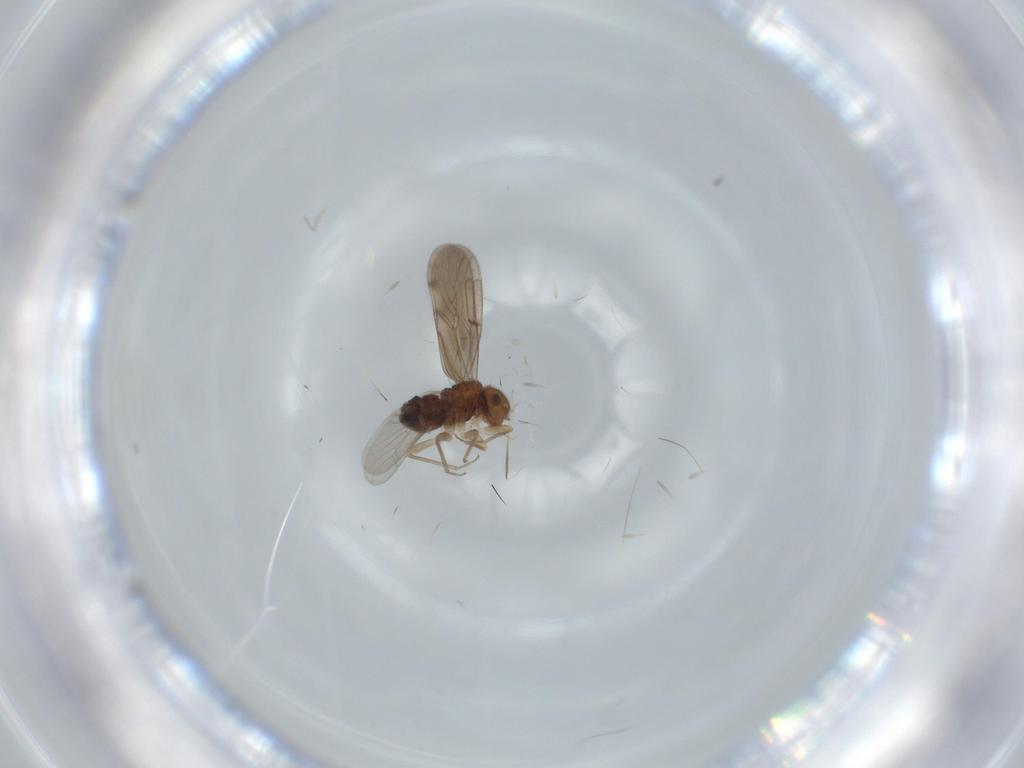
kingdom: Animalia
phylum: Arthropoda
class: Insecta
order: Psocodea
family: Ectopsocidae
